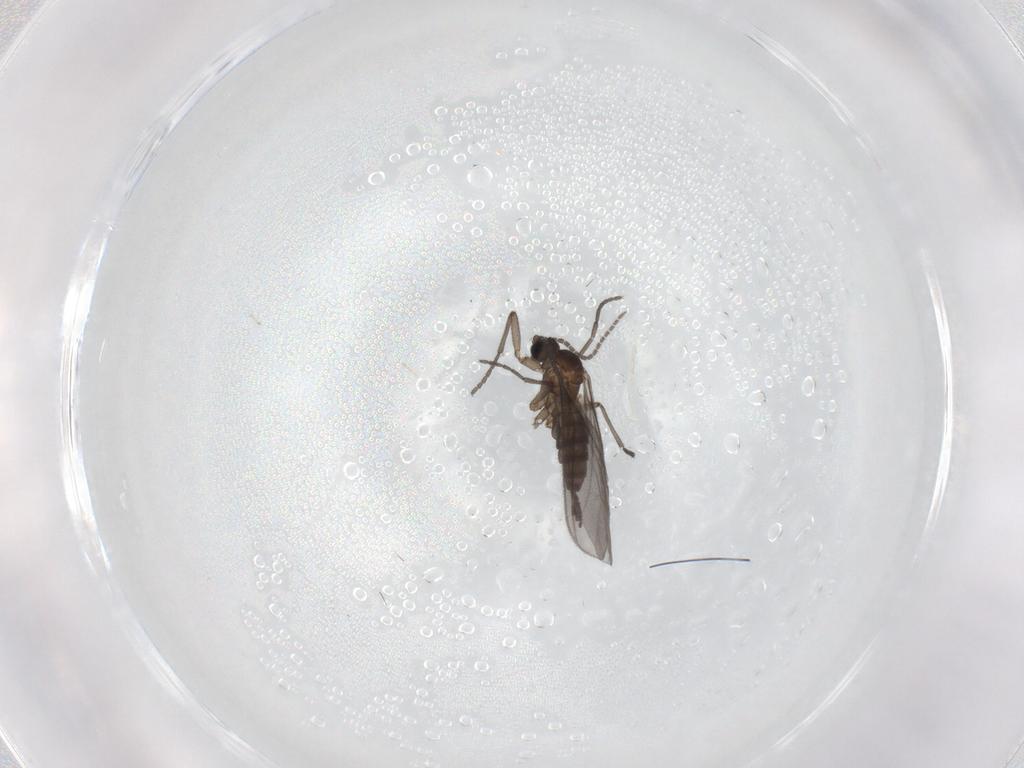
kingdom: Animalia
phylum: Arthropoda
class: Insecta
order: Diptera
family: Sciaridae
